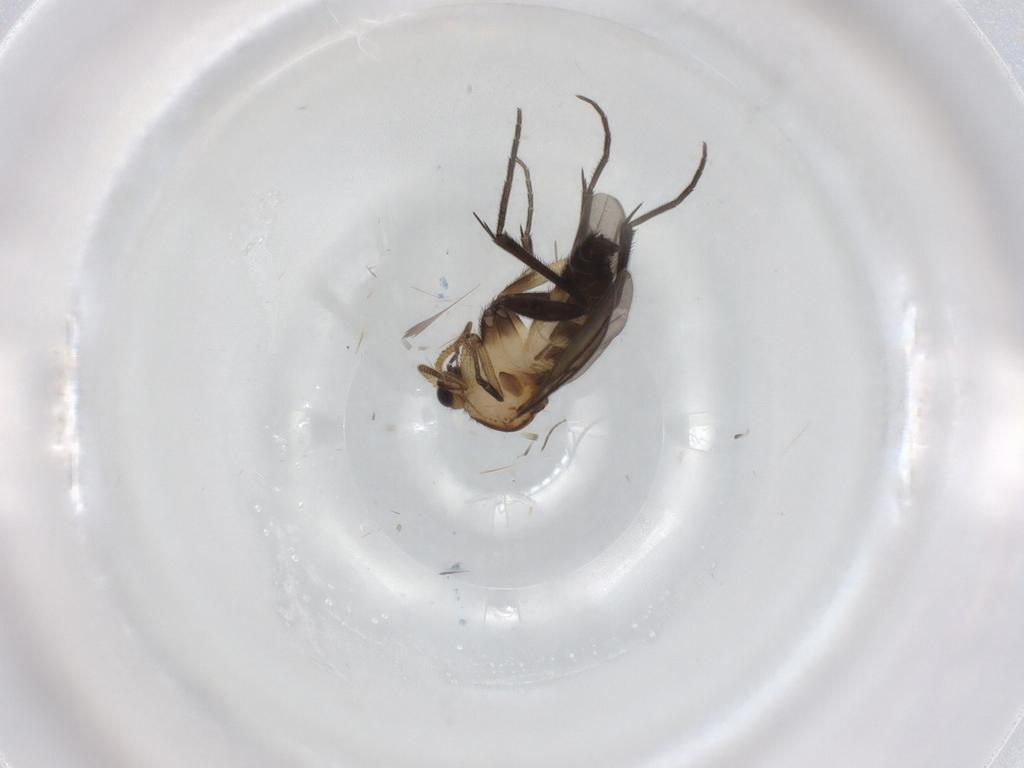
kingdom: Animalia
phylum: Arthropoda
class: Insecta
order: Diptera
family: Chironomidae
